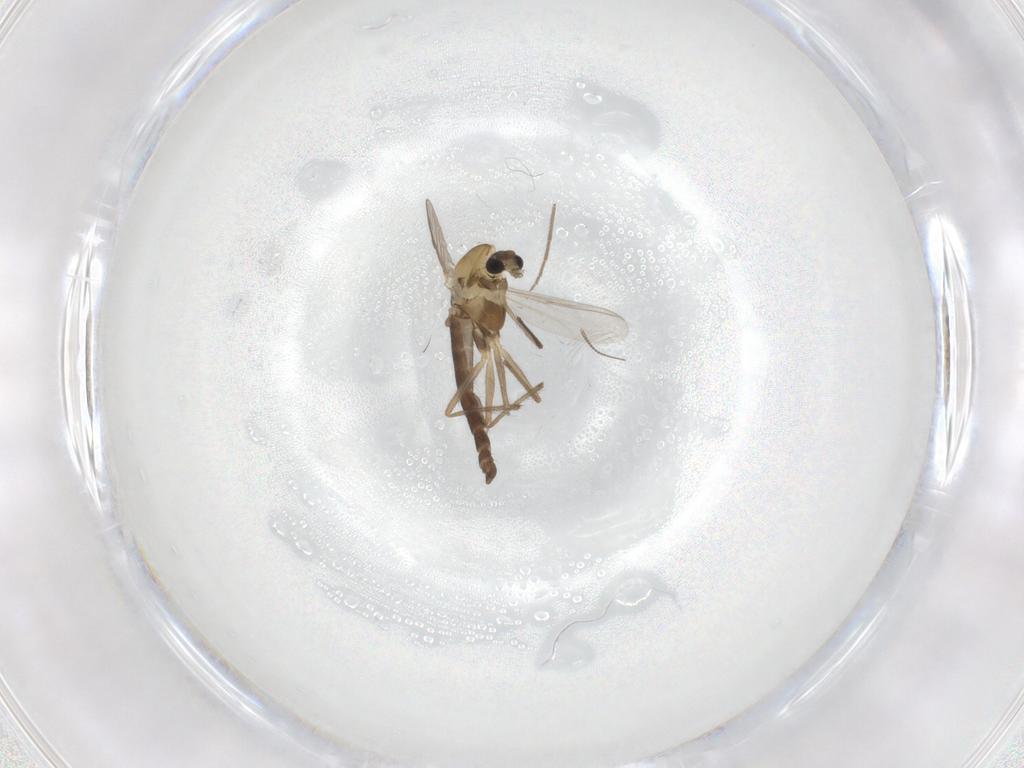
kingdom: Animalia
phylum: Arthropoda
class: Insecta
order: Diptera
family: Chironomidae
